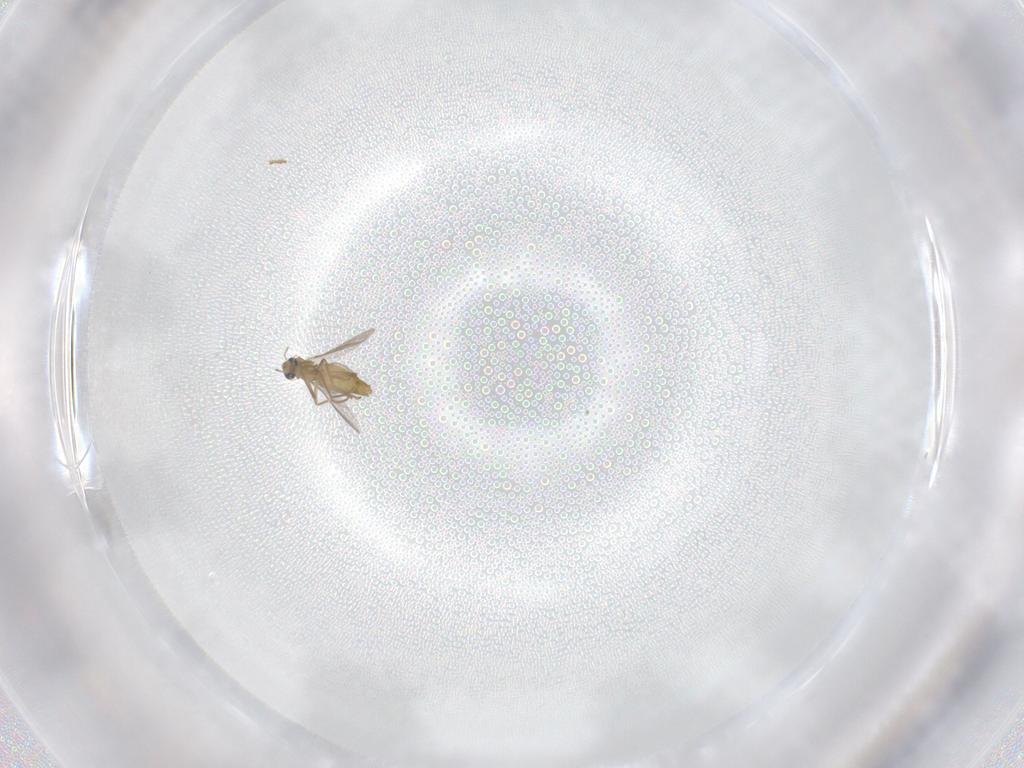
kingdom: Animalia
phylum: Arthropoda
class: Insecta
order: Diptera
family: Chironomidae
